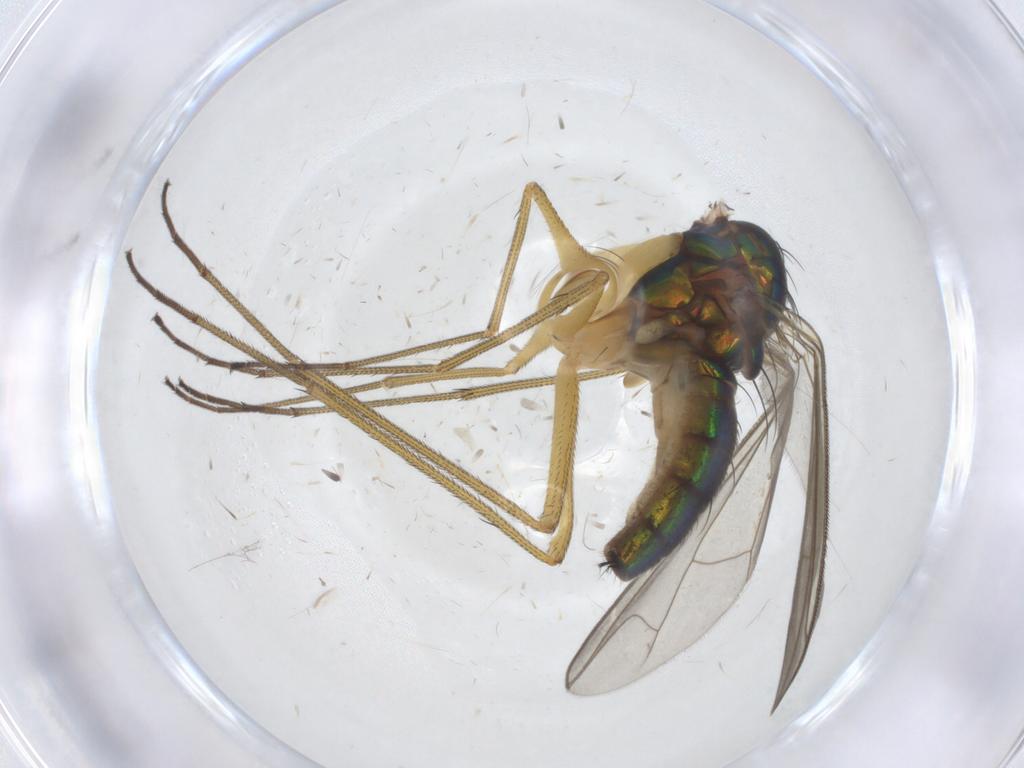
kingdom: Animalia
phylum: Arthropoda
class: Insecta
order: Diptera
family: Dolichopodidae
